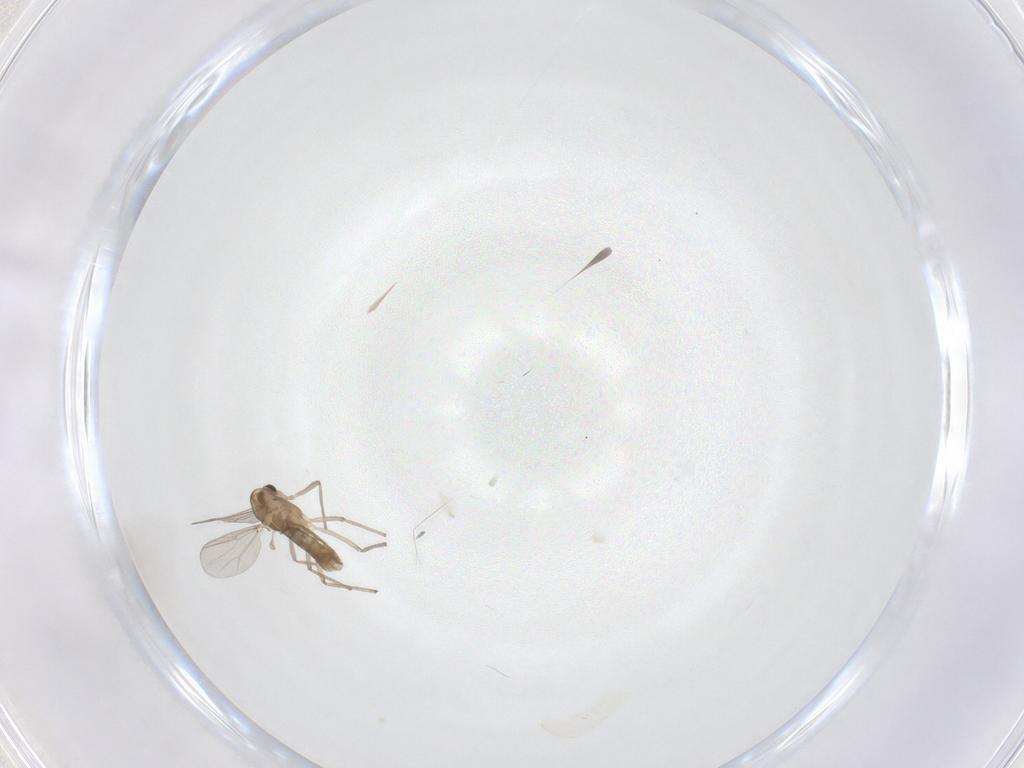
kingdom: Animalia
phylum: Arthropoda
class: Insecta
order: Diptera
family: Chironomidae
